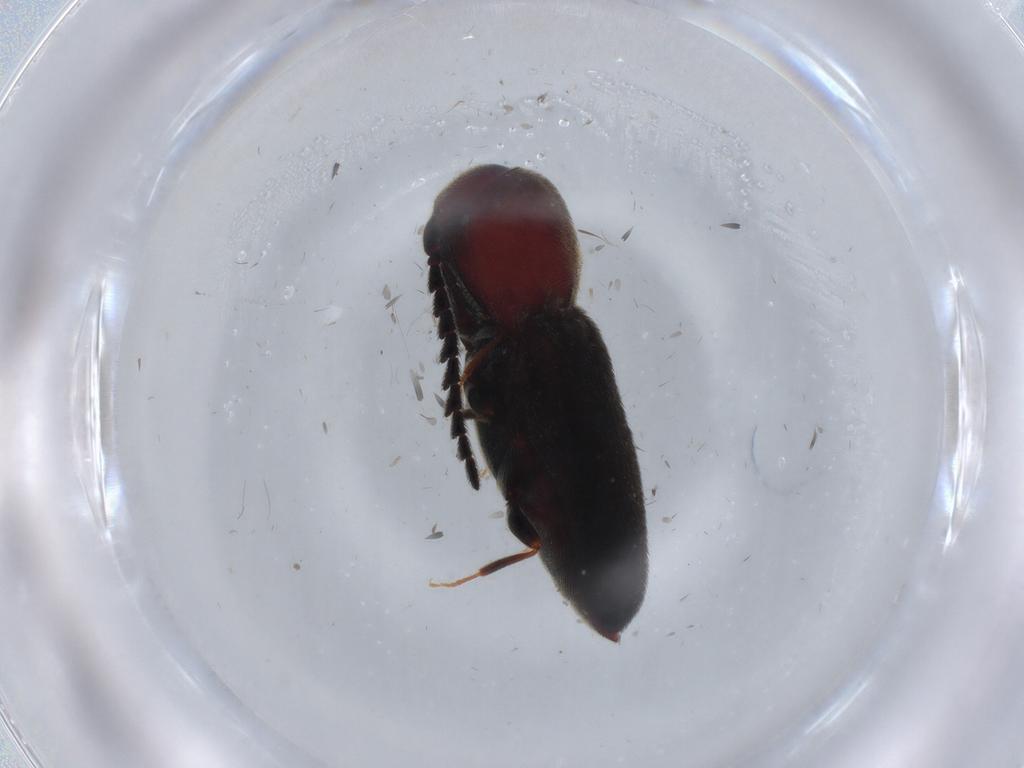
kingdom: Animalia
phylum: Arthropoda
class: Insecta
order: Coleoptera
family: Eucnemidae
